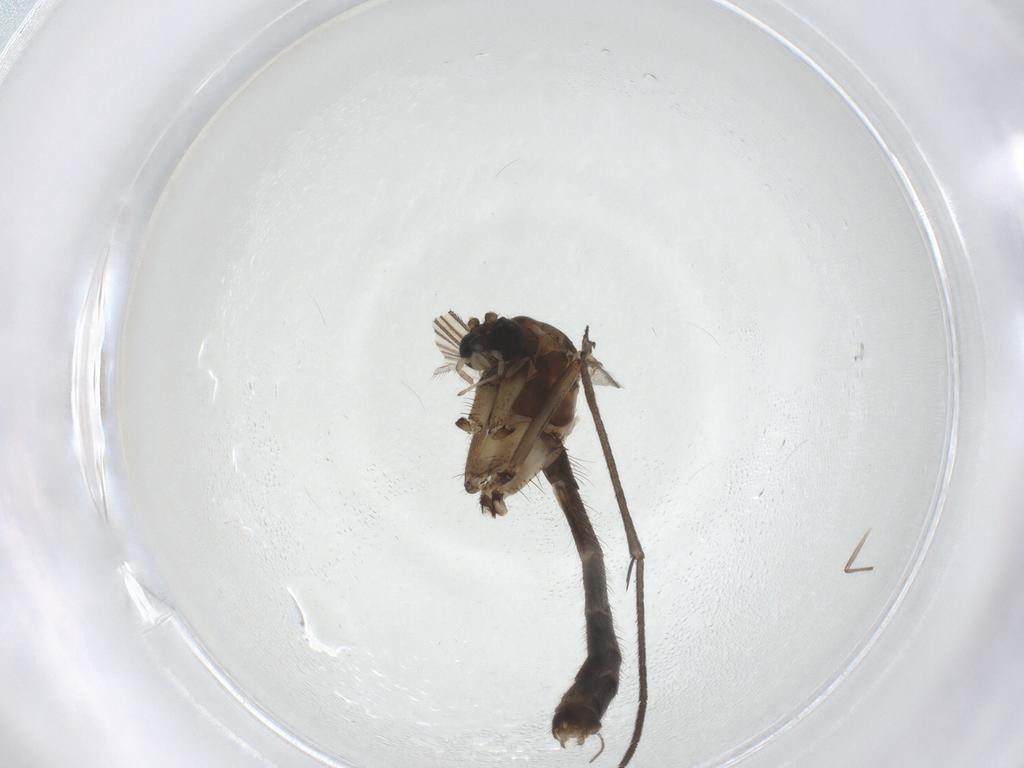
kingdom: Animalia
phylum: Arthropoda
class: Insecta
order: Diptera
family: Mycetophilidae
